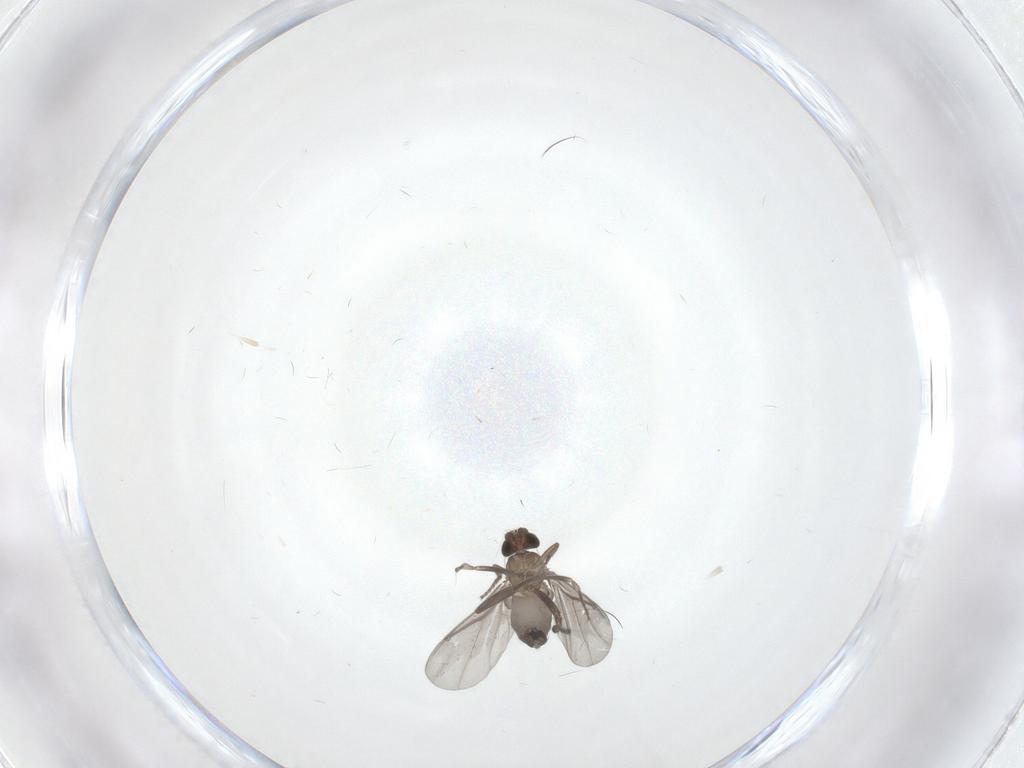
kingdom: Animalia
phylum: Arthropoda
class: Insecta
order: Diptera
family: Phoridae
